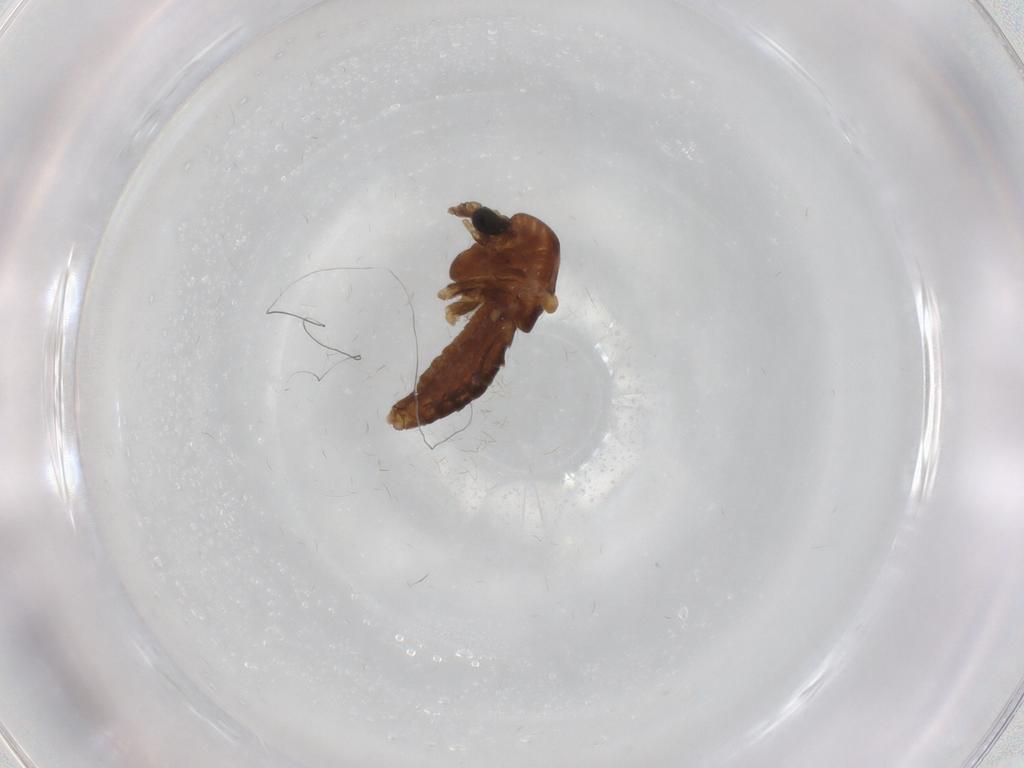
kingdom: Animalia
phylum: Arthropoda
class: Insecta
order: Diptera
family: Chironomidae
